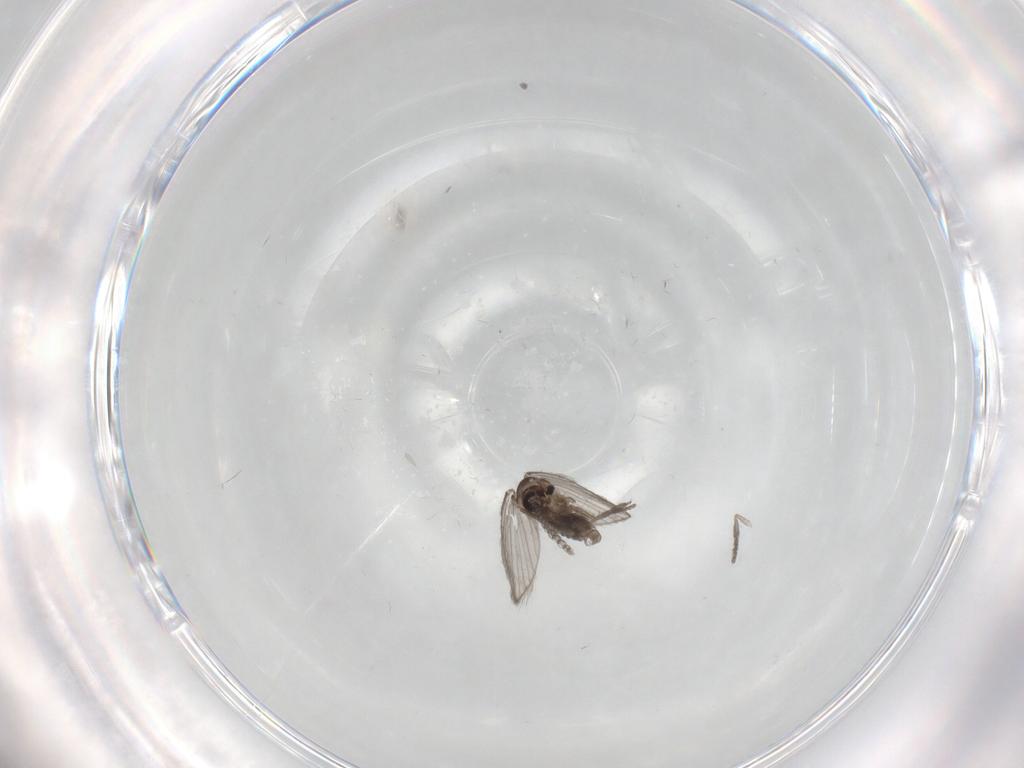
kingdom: Animalia
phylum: Arthropoda
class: Insecta
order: Diptera
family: Psychodidae
